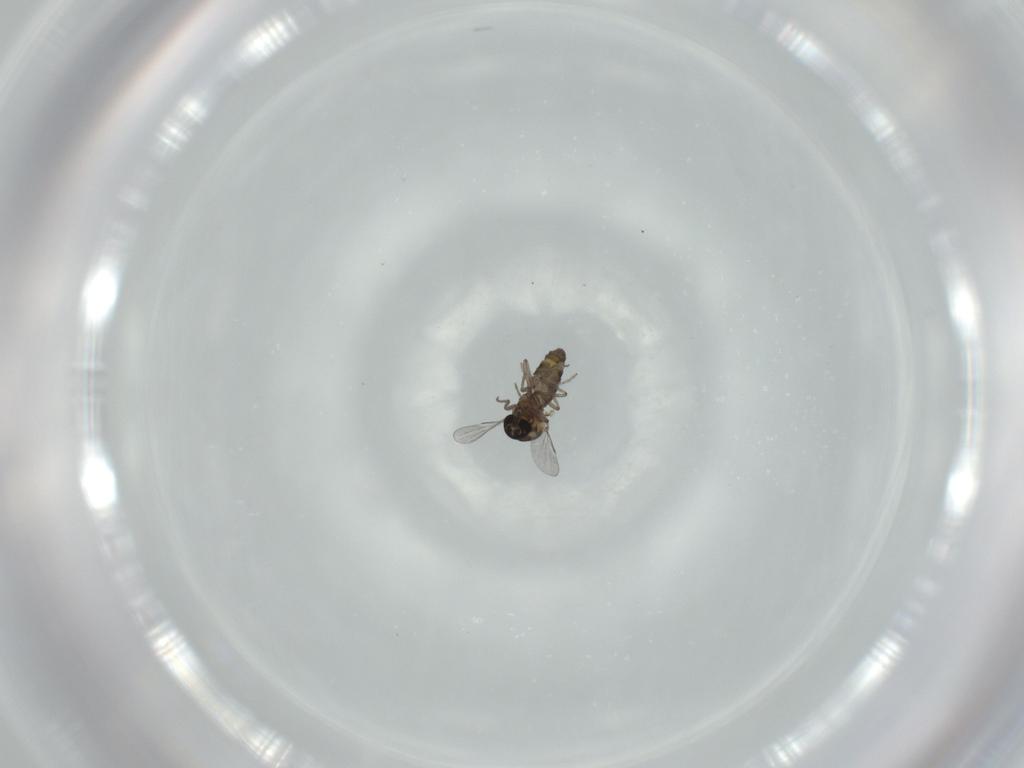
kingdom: Animalia
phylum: Arthropoda
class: Insecta
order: Diptera
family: Ceratopogonidae
